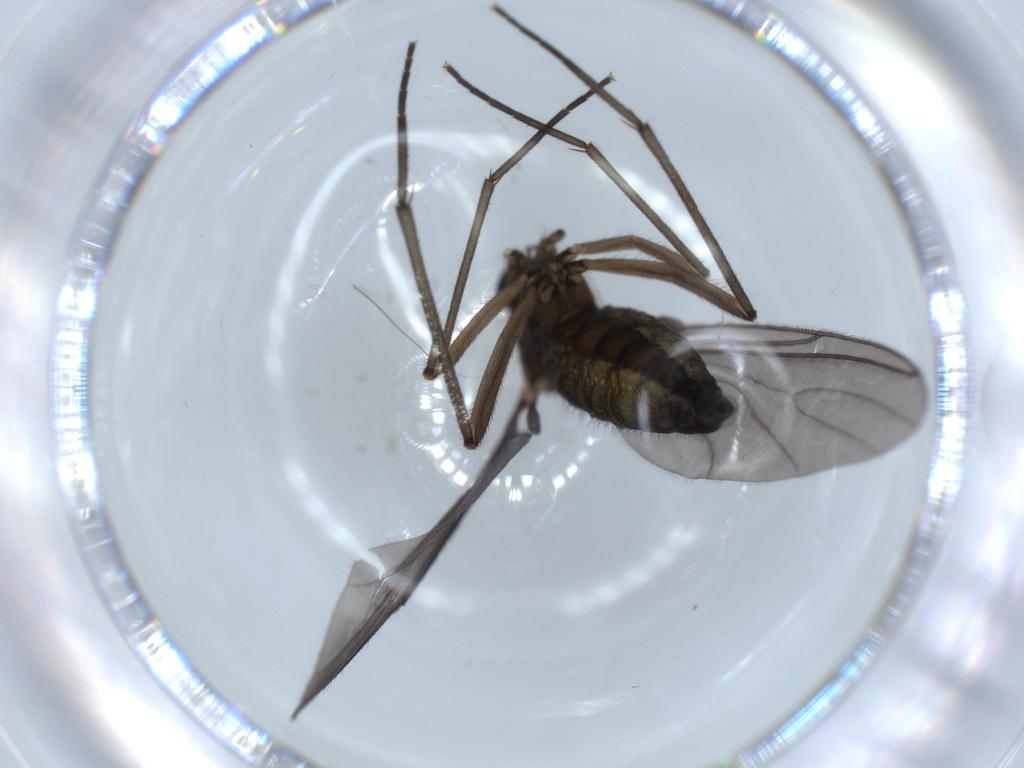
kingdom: Animalia
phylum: Arthropoda
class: Insecta
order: Diptera
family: Sciaridae
